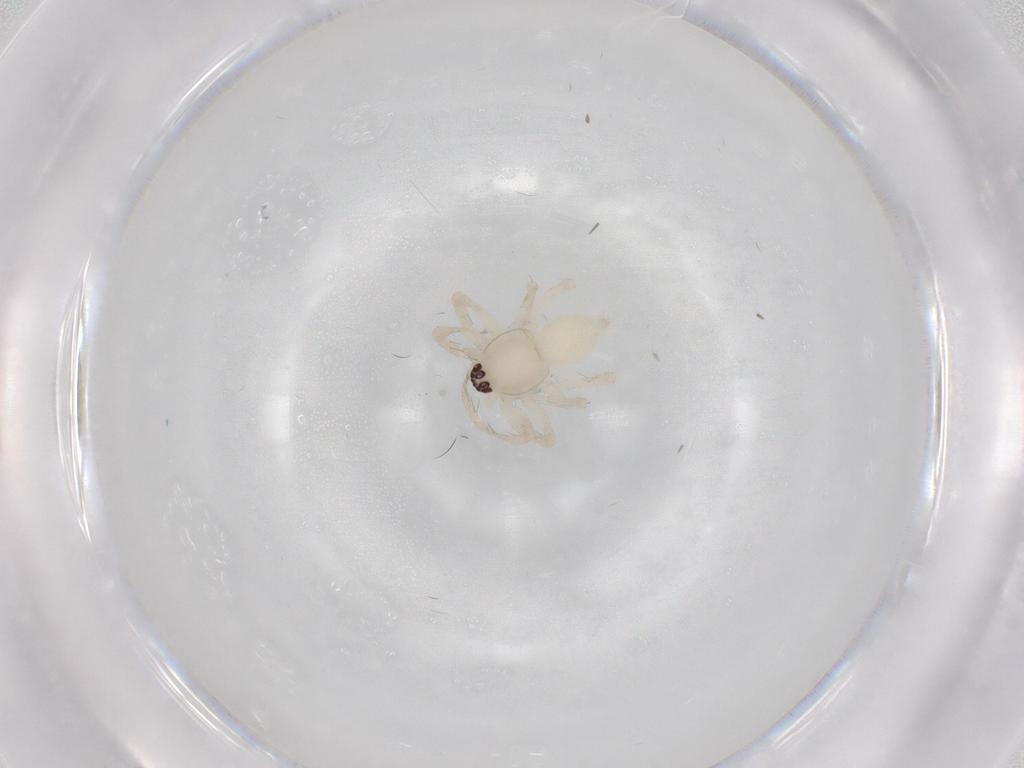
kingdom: Animalia
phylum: Arthropoda
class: Arachnida
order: Araneae
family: Anyphaenidae
